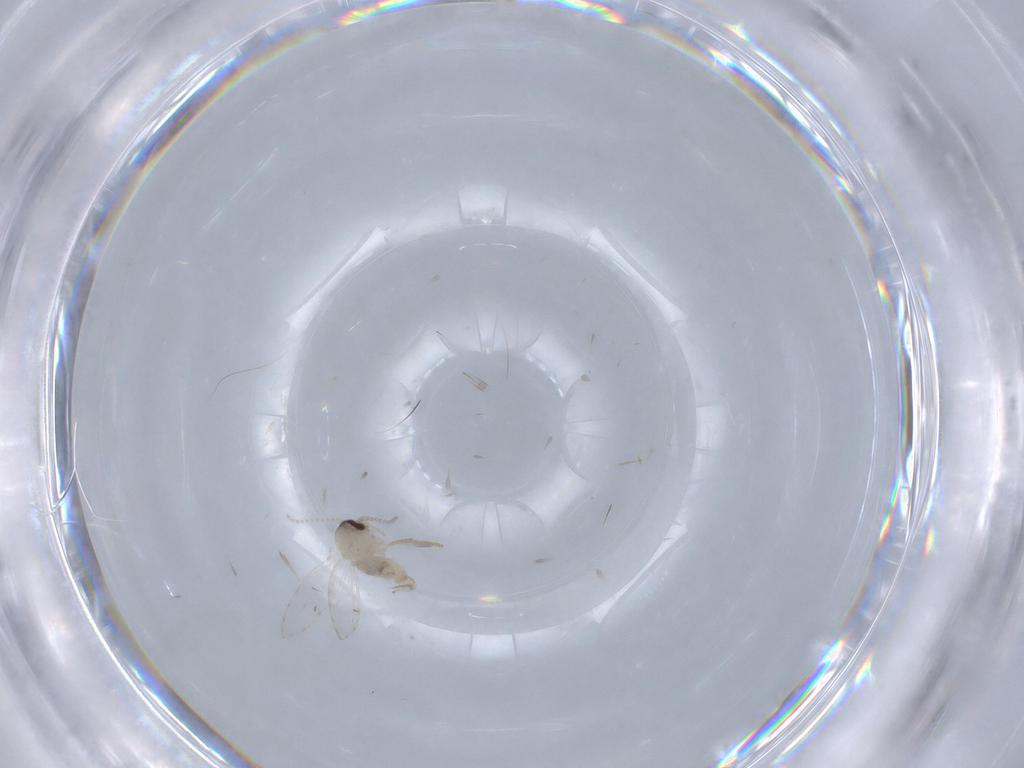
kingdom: Animalia
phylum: Arthropoda
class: Insecta
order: Diptera
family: Psychodidae
